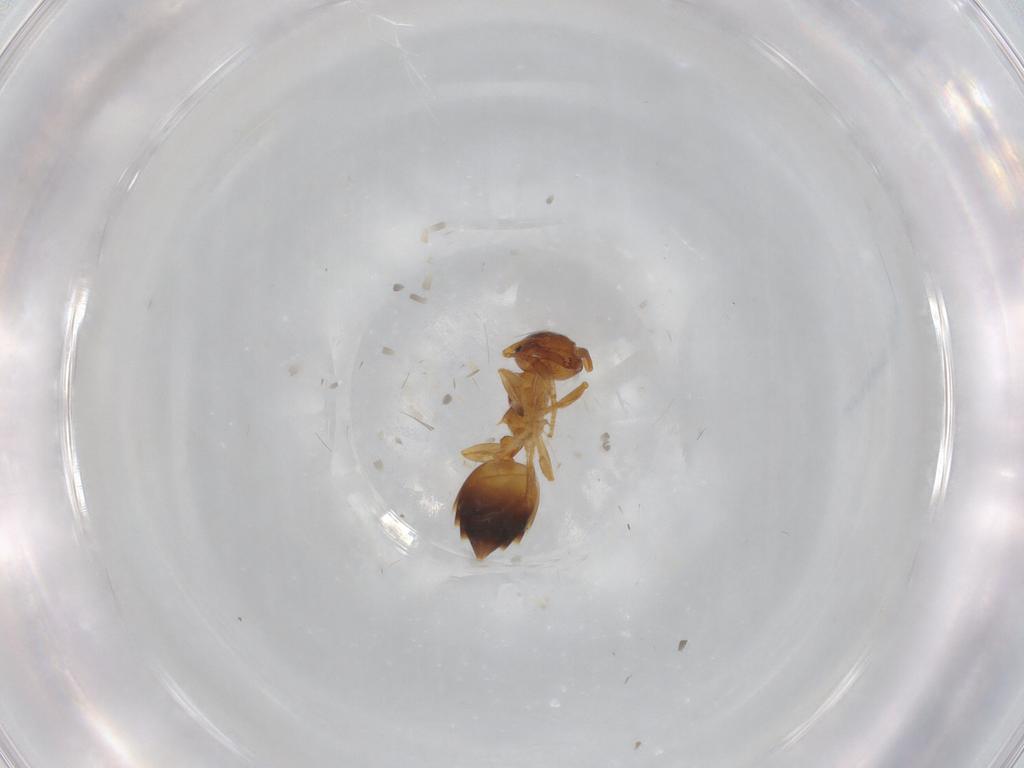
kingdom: Animalia
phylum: Arthropoda
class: Insecta
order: Hymenoptera
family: Formicidae
